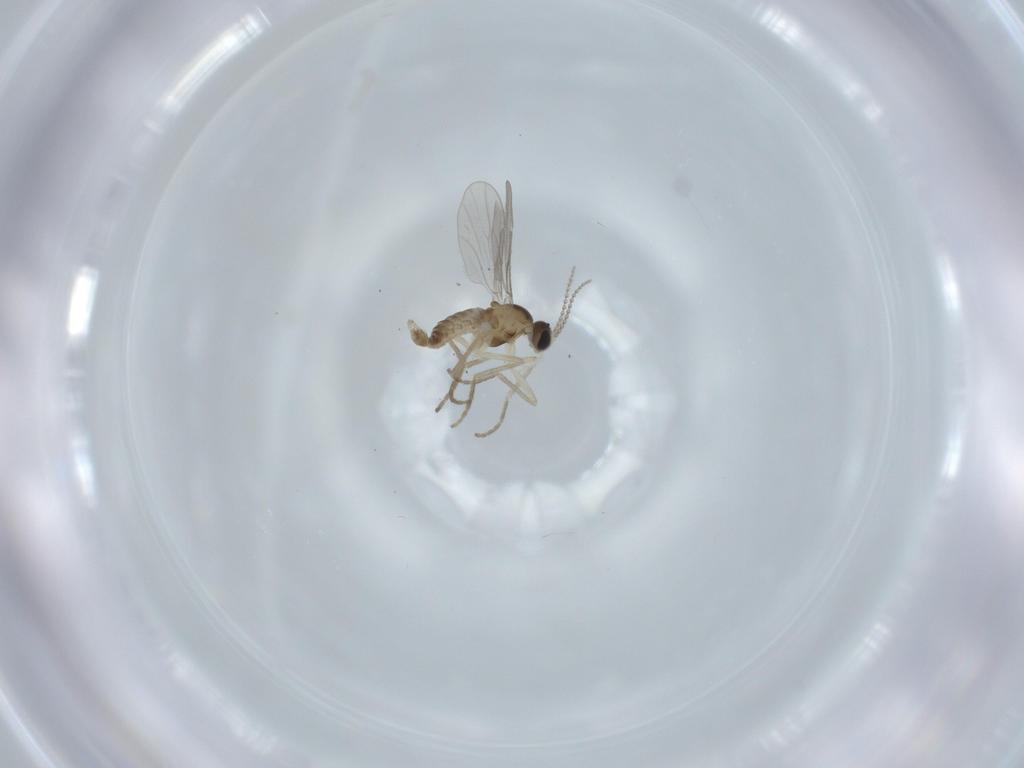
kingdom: Animalia
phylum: Arthropoda
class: Insecta
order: Diptera
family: Cecidomyiidae
